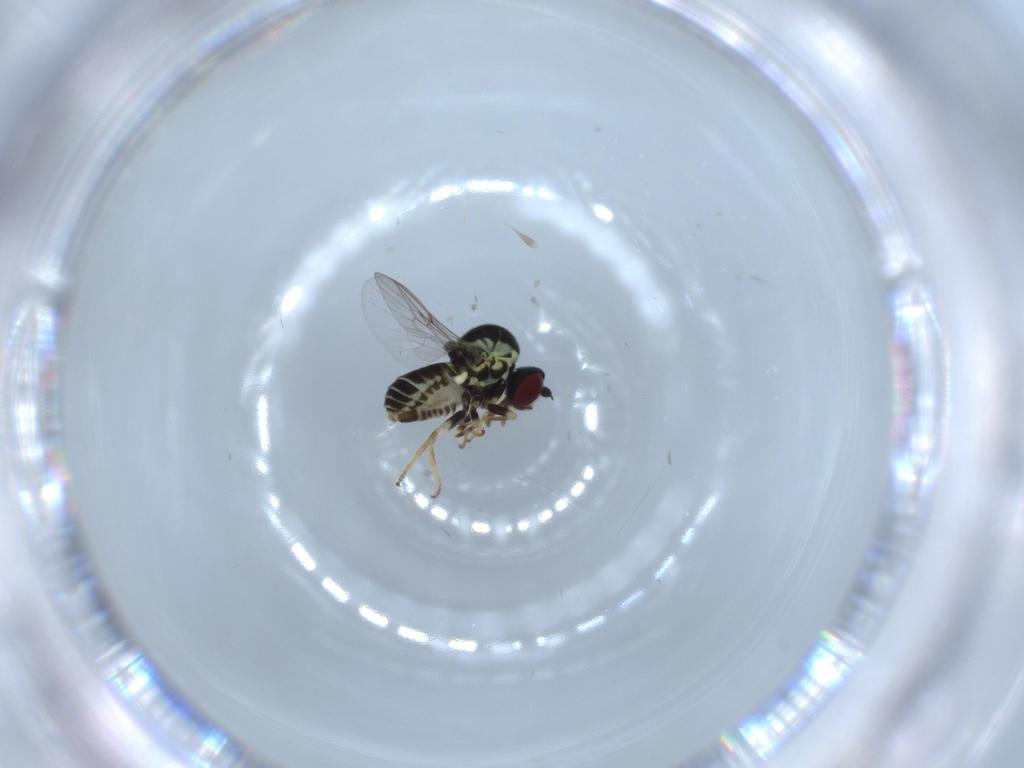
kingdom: Animalia
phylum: Arthropoda
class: Insecta
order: Diptera
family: Bombyliidae
